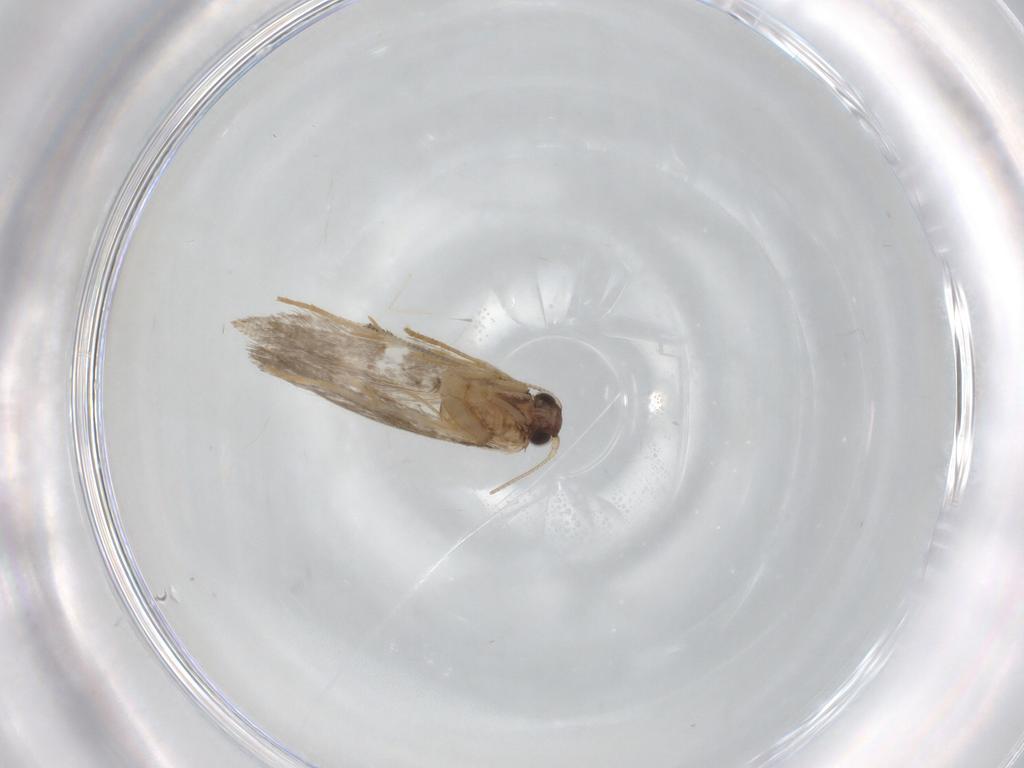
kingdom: Animalia
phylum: Arthropoda
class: Insecta
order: Lepidoptera
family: Tineidae
